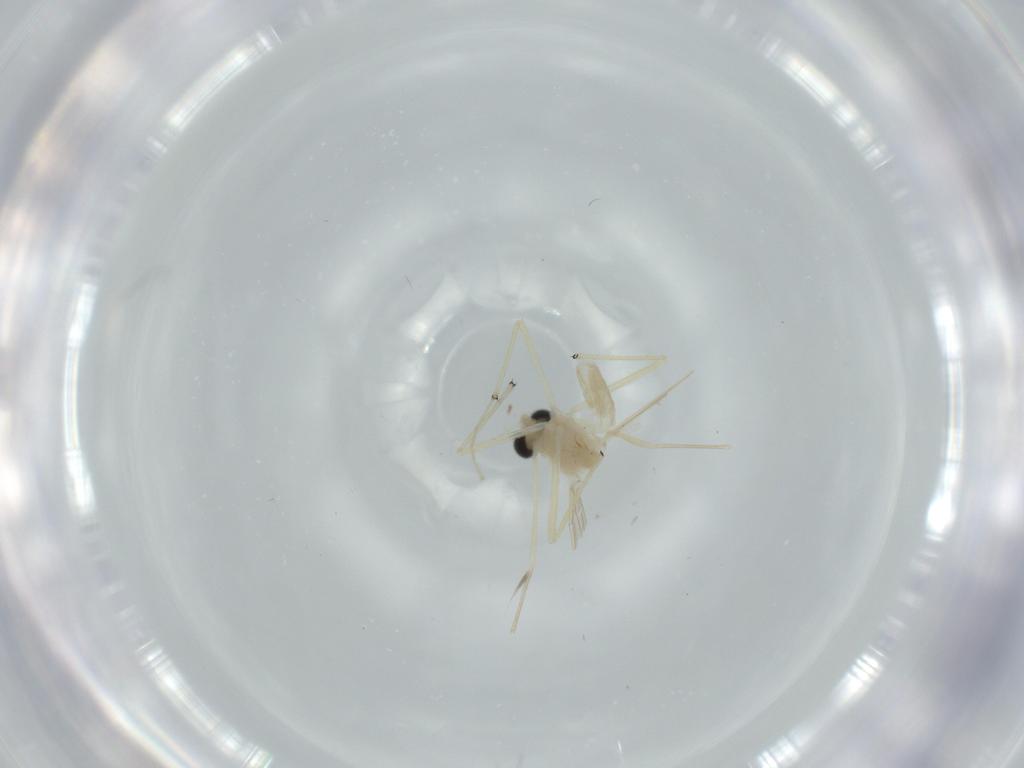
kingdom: Animalia
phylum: Arthropoda
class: Insecta
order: Diptera
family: Chironomidae
